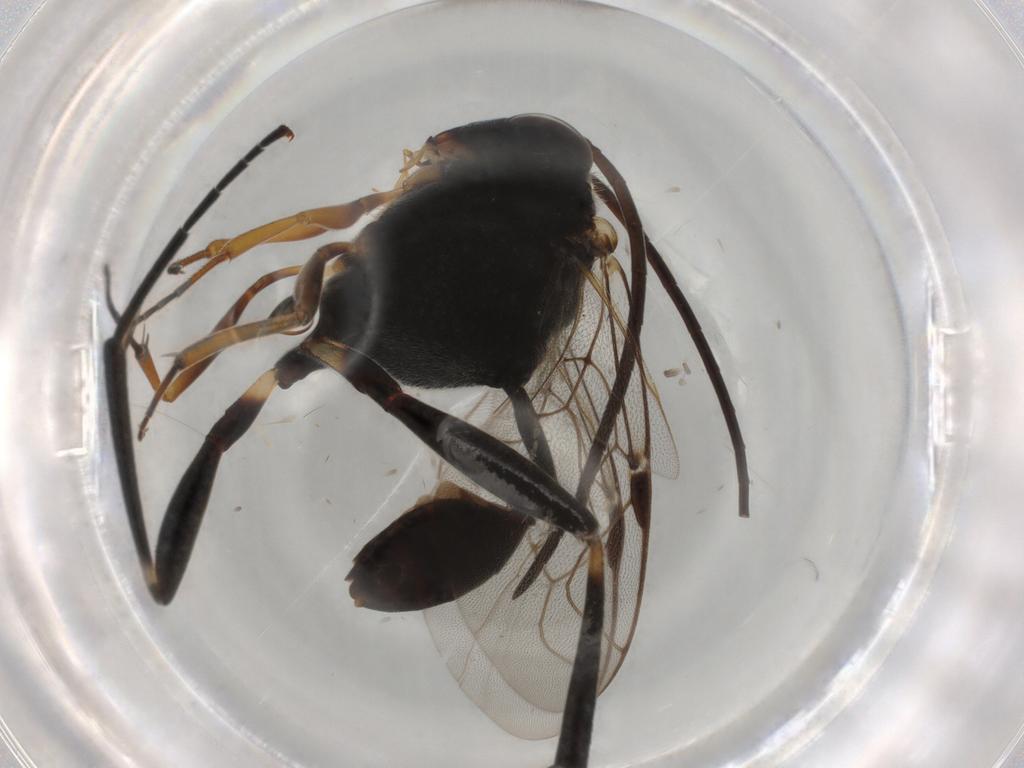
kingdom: Animalia
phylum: Arthropoda
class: Insecta
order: Hymenoptera
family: Evaniidae
